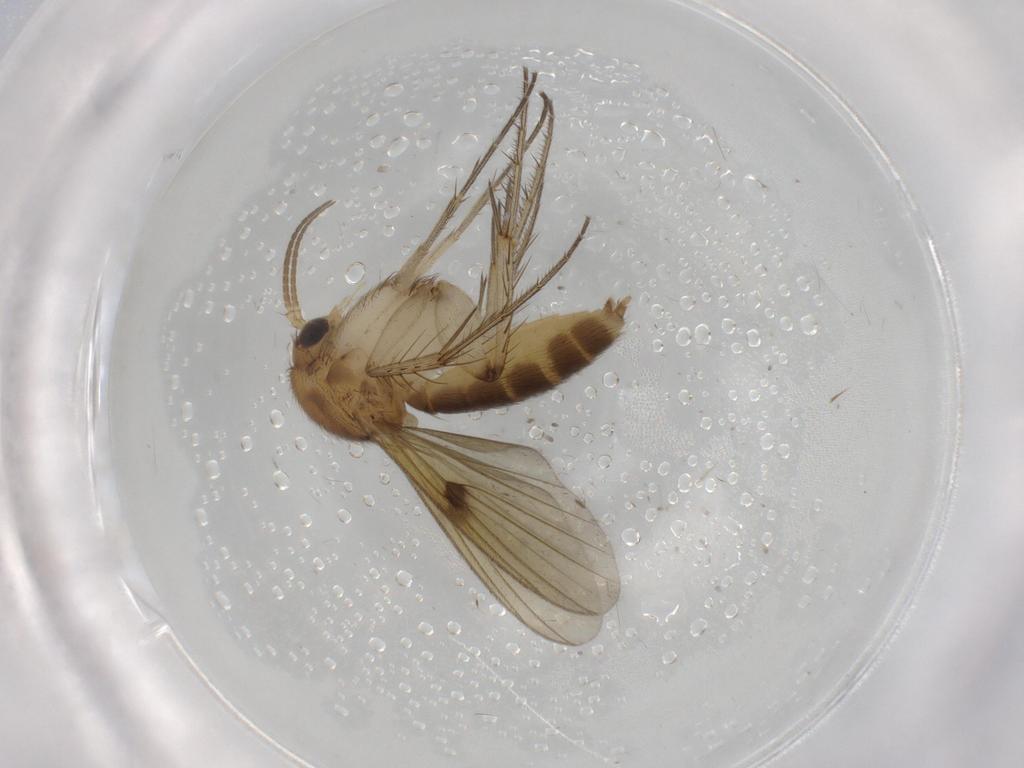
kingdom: Animalia
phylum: Arthropoda
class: Insecta
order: Diptera
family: Mycetophilidae
